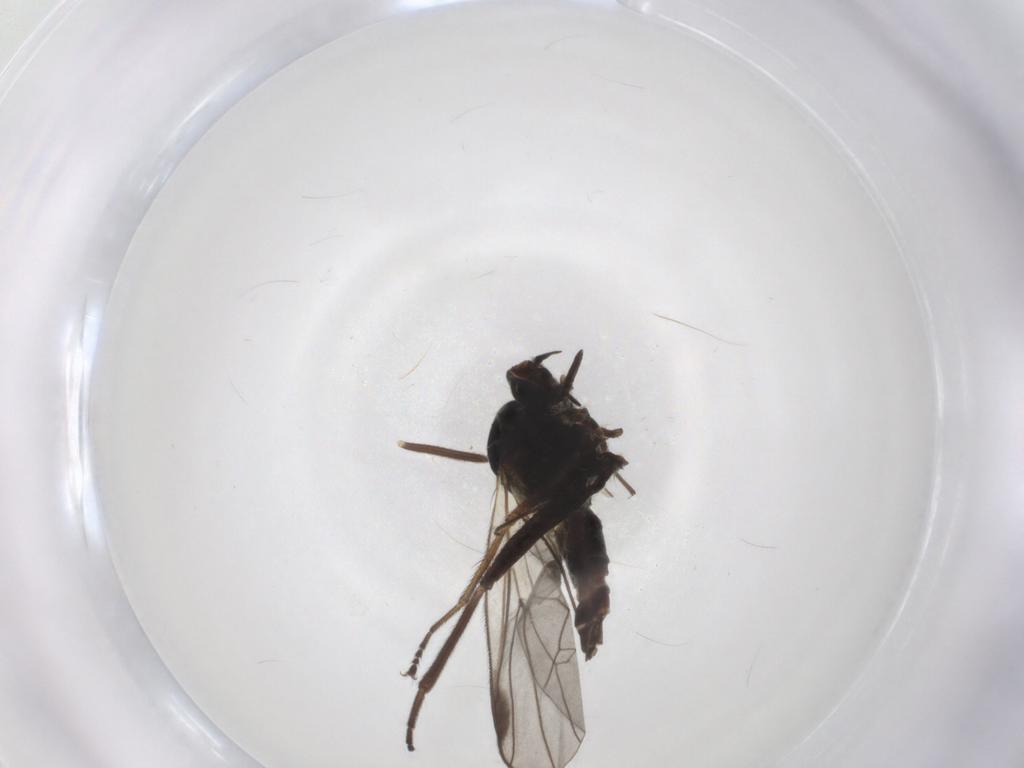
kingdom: Animalia
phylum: Arthropoda
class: Insecta
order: Diptera
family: Hybotidae
